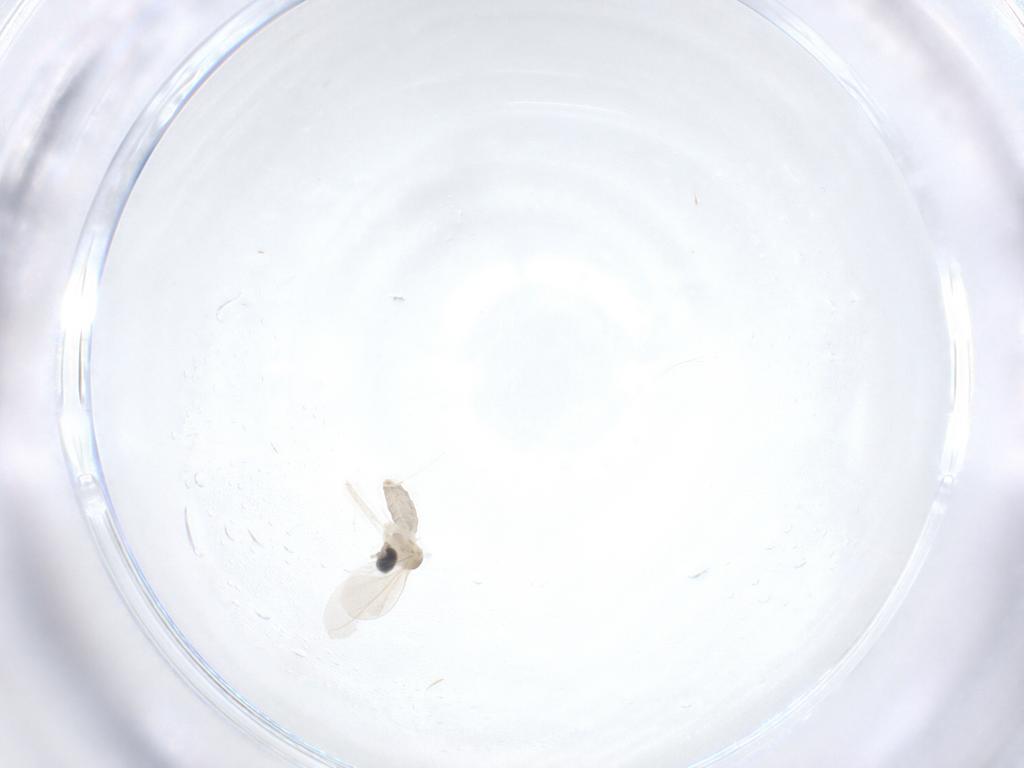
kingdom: Animalia
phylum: Arthropoda
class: Insecta
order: Diptera
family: Cecidomyiidae
